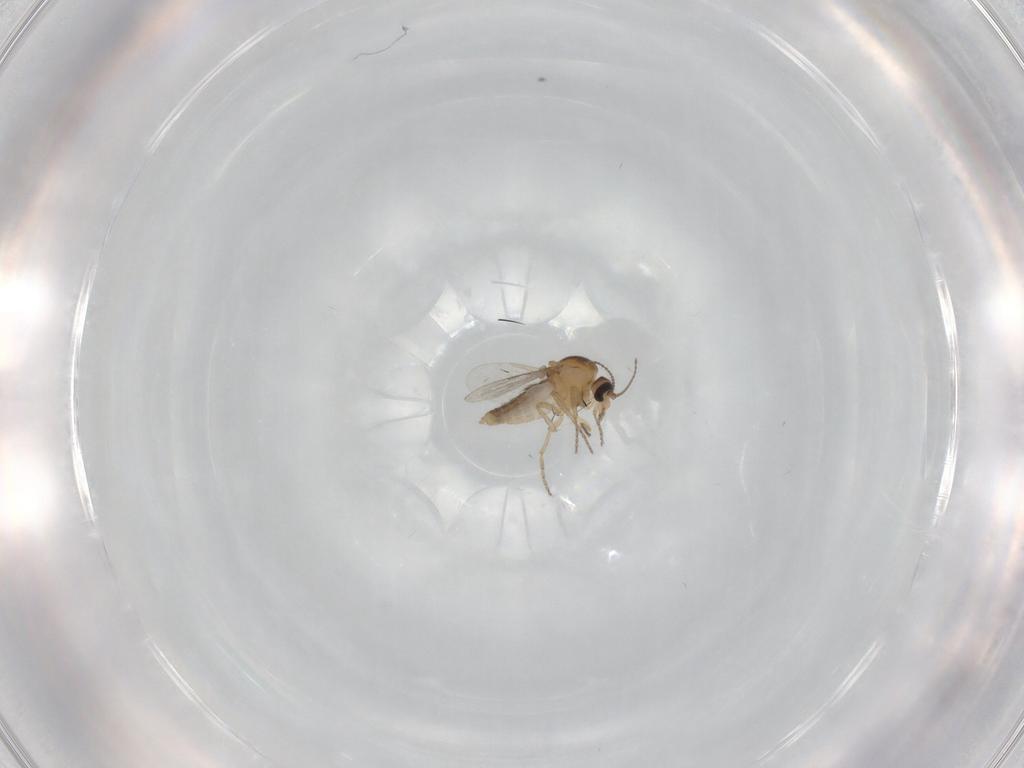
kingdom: Animalia
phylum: Arthropoda
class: Insecta
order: Diptera
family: Ceratopogonidae
